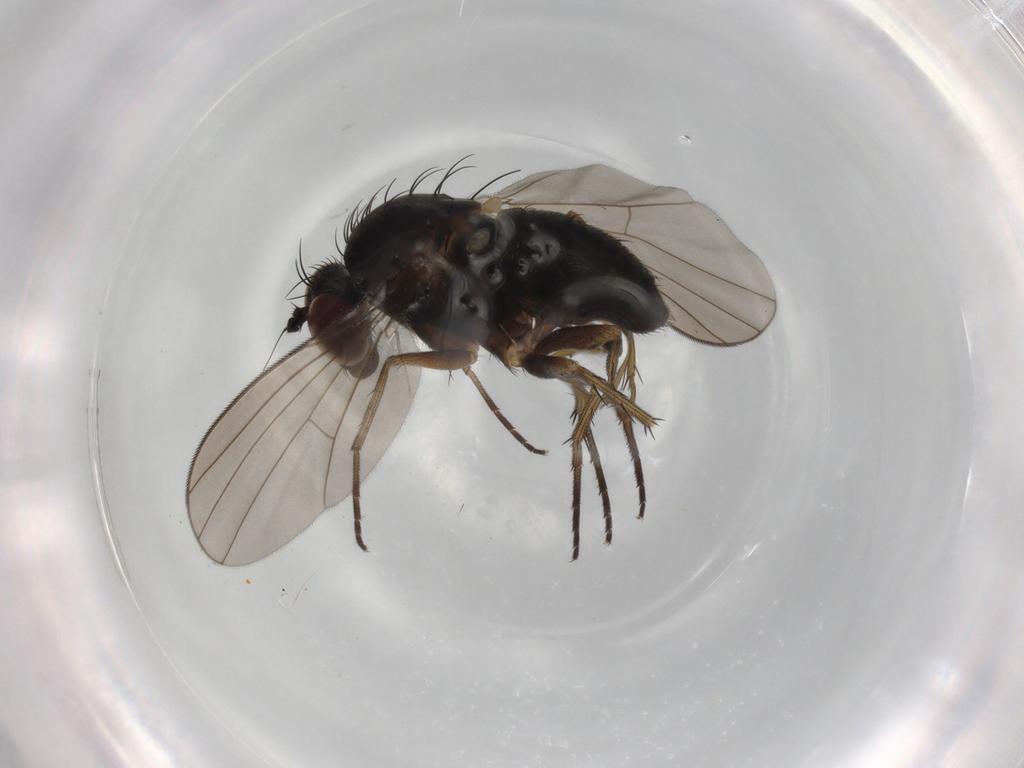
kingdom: Animalia
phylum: Arthropoda
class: Insecta
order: Diptera
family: Dolichopodidae
